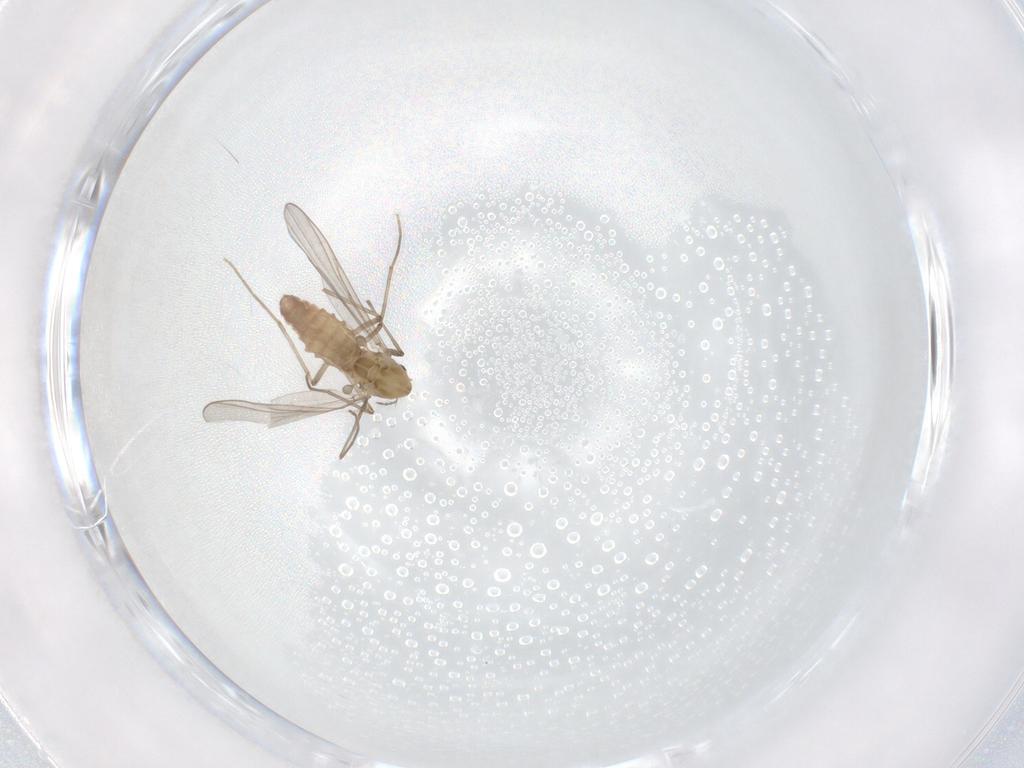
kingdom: Animalia
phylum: Arthropoda
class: Insecta
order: Diptera
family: Chironomidae
